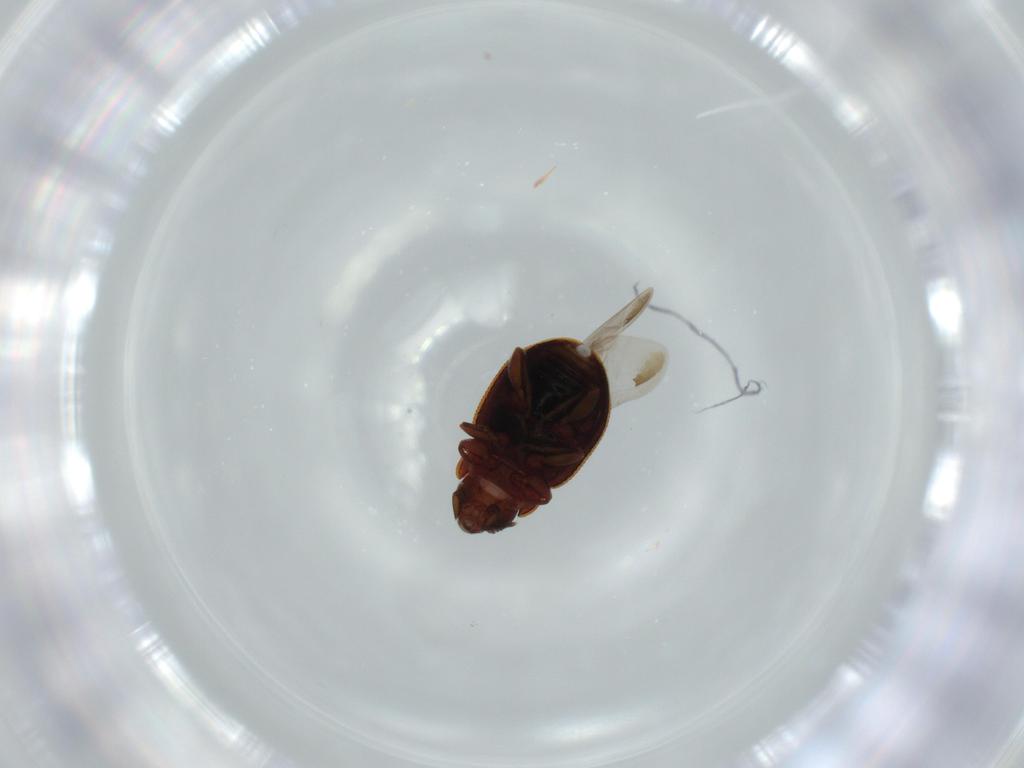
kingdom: Animalia
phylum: Arthropoda
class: Insecta
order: Coleoptera
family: Coccinellidae
